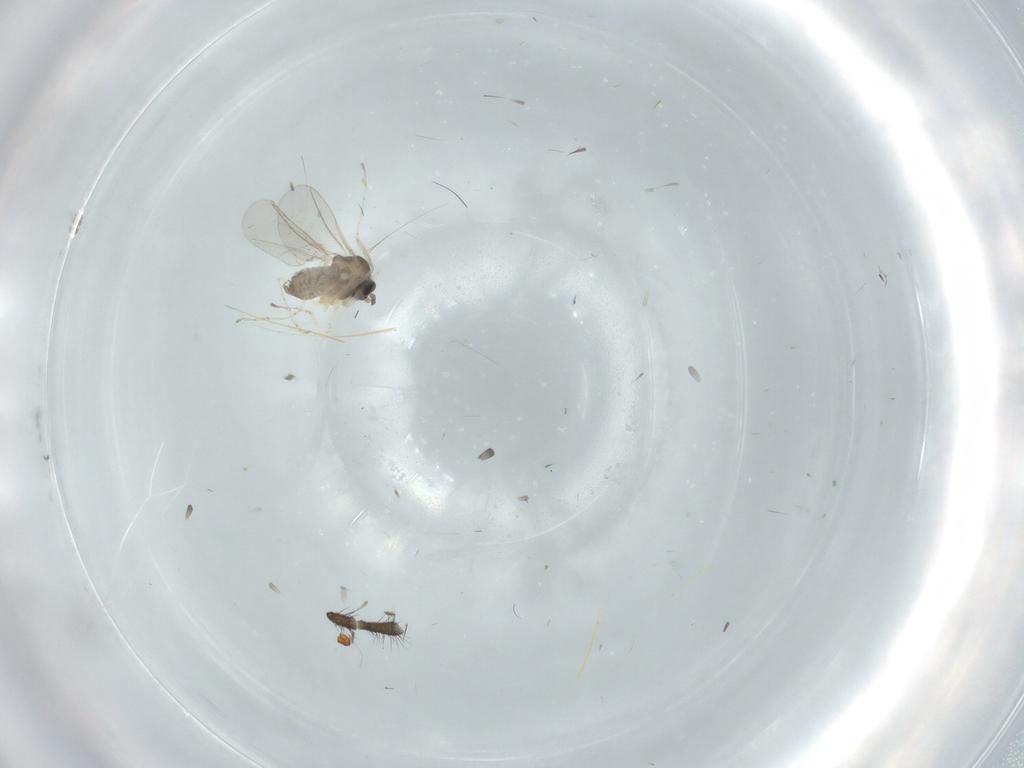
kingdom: Animalia
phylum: Arthropoda
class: Insecta
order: Diptera
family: Cecidomyiidae
